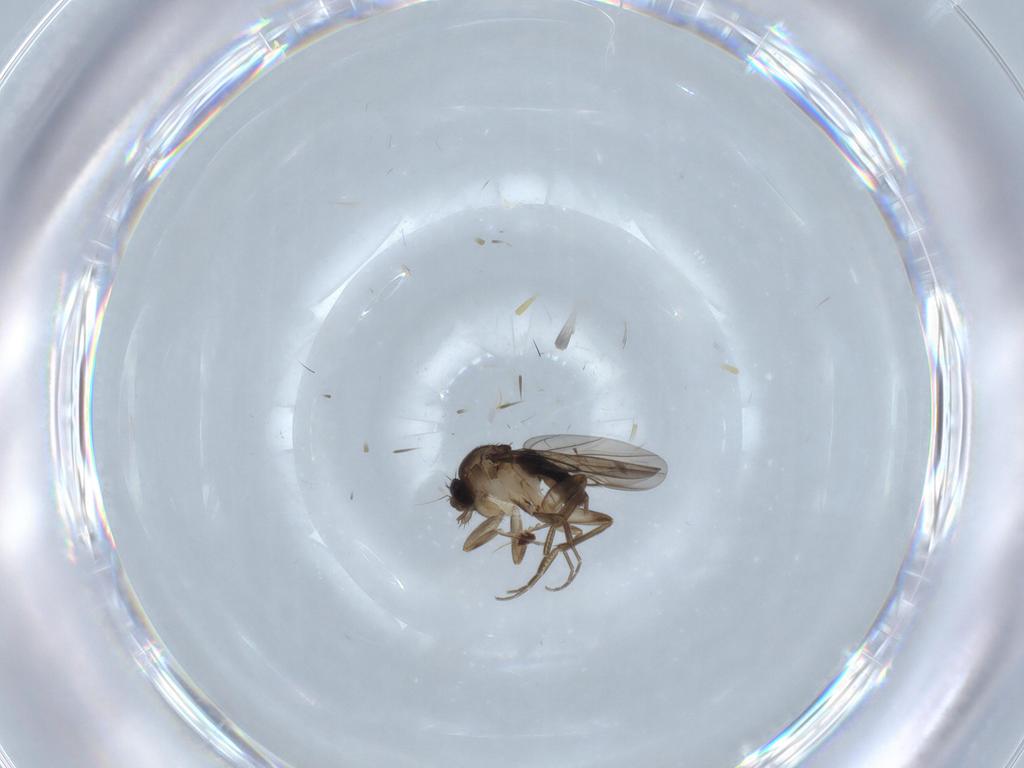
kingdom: Animalia
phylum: Arthropoda
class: Insecta
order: Diptera
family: Phoridae
